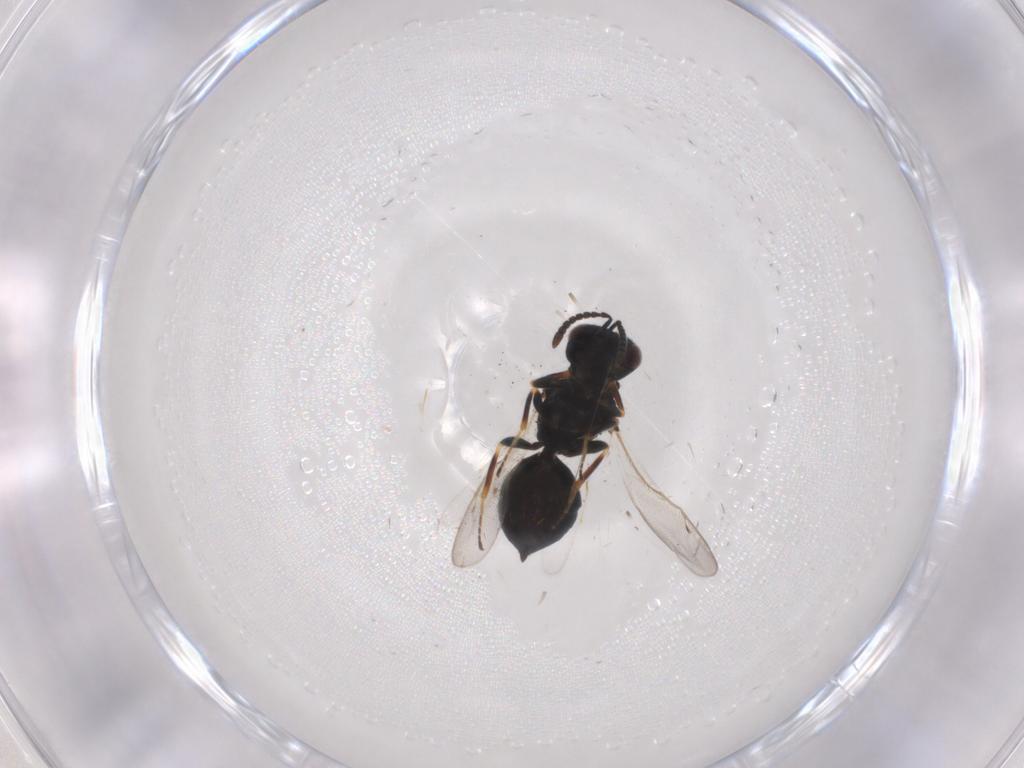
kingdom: Animalia
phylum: Arthropoda
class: Insecta
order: Hymenoptera
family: Pteromalidae
